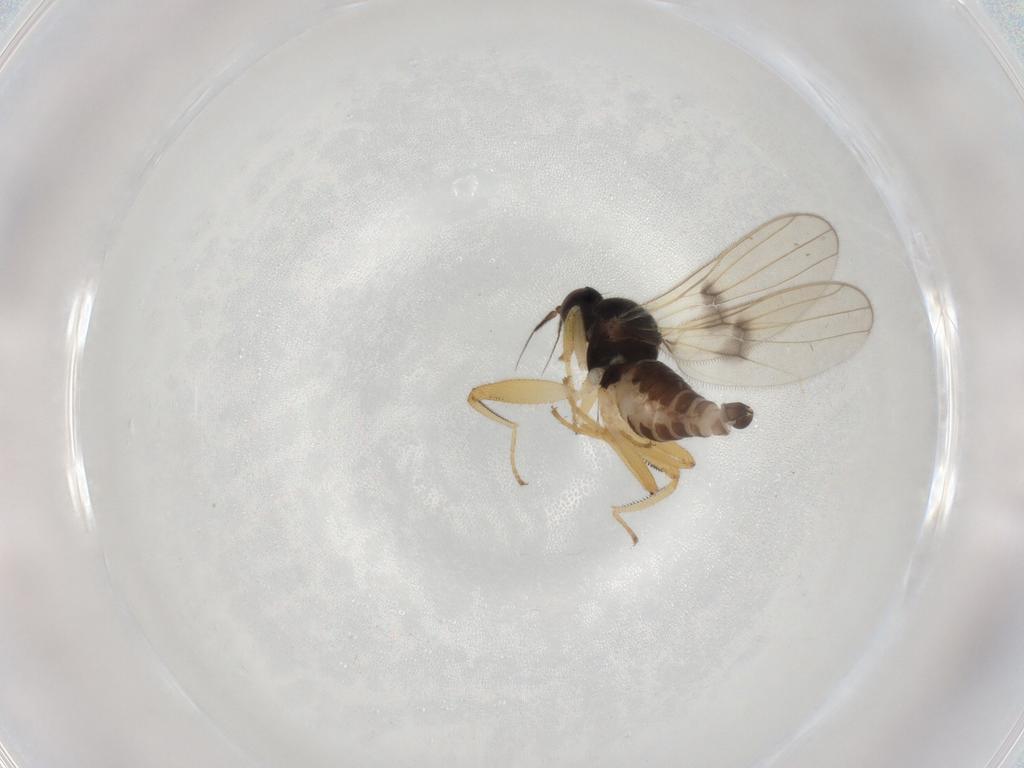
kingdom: Animalia
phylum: Arthropoda
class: Insecta
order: Diptera
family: Hybotidae
